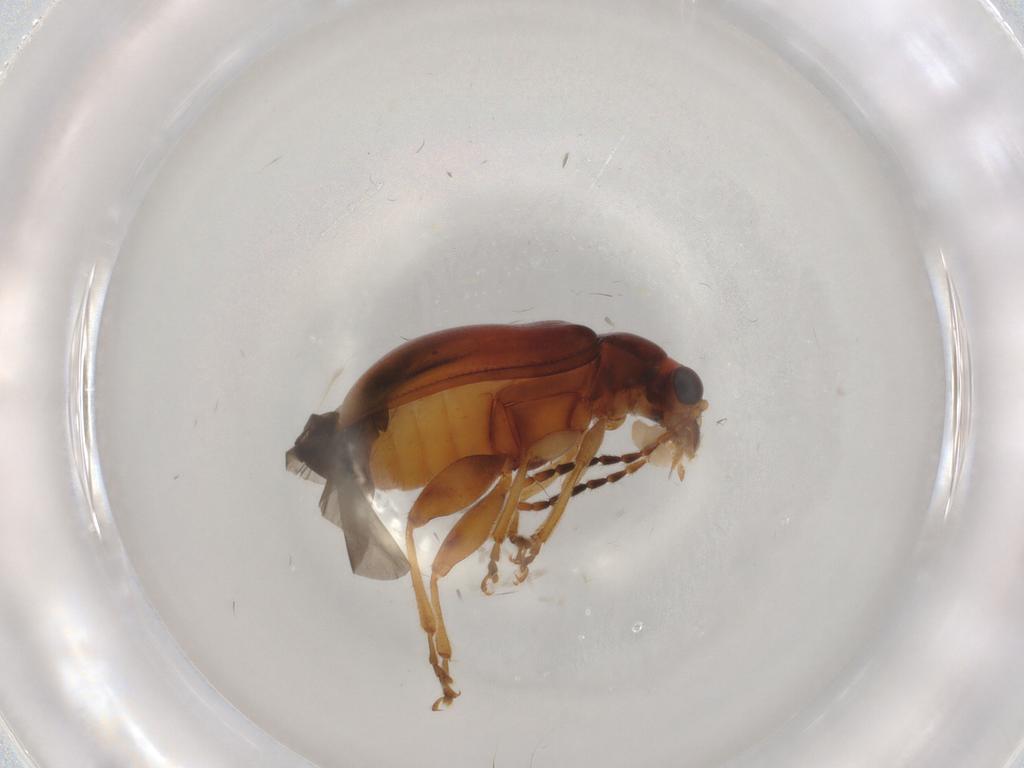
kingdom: Animalia
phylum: Arthropoda
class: Insecta
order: Coleoptera
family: Chrysomelidae
